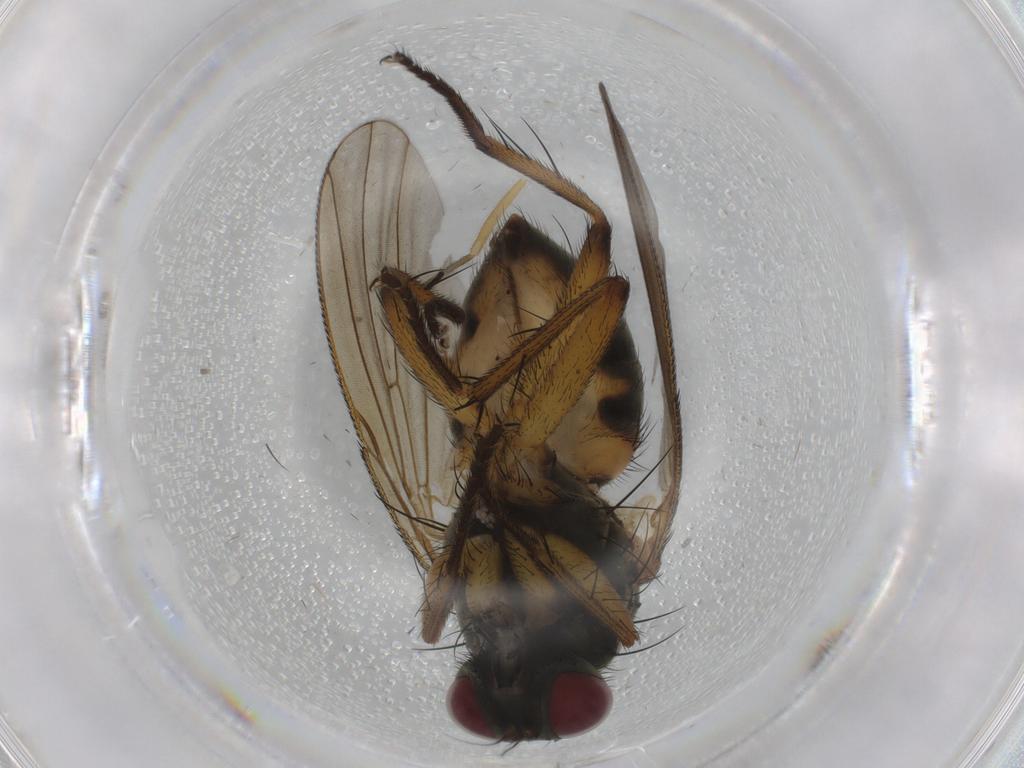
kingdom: Animalia
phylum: Arthropoda
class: Insecta
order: Diptera
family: Muscidae
